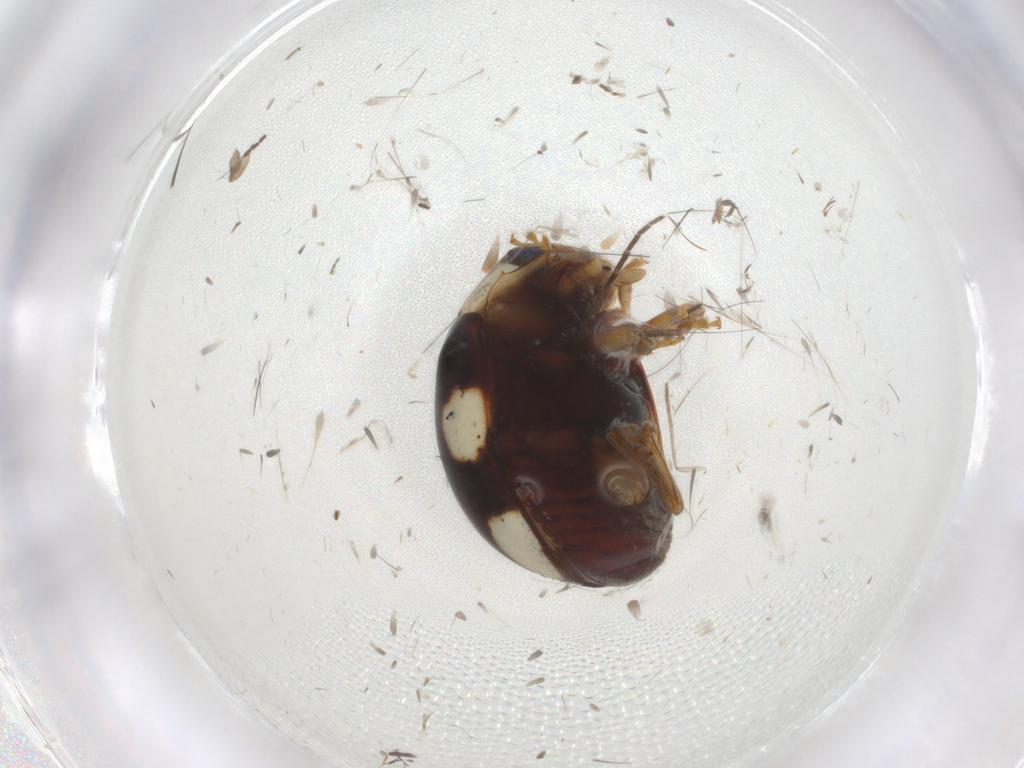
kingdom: Animalia
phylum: Arthropoda
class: Insecta
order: Coleoptera
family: Coccinellidae
